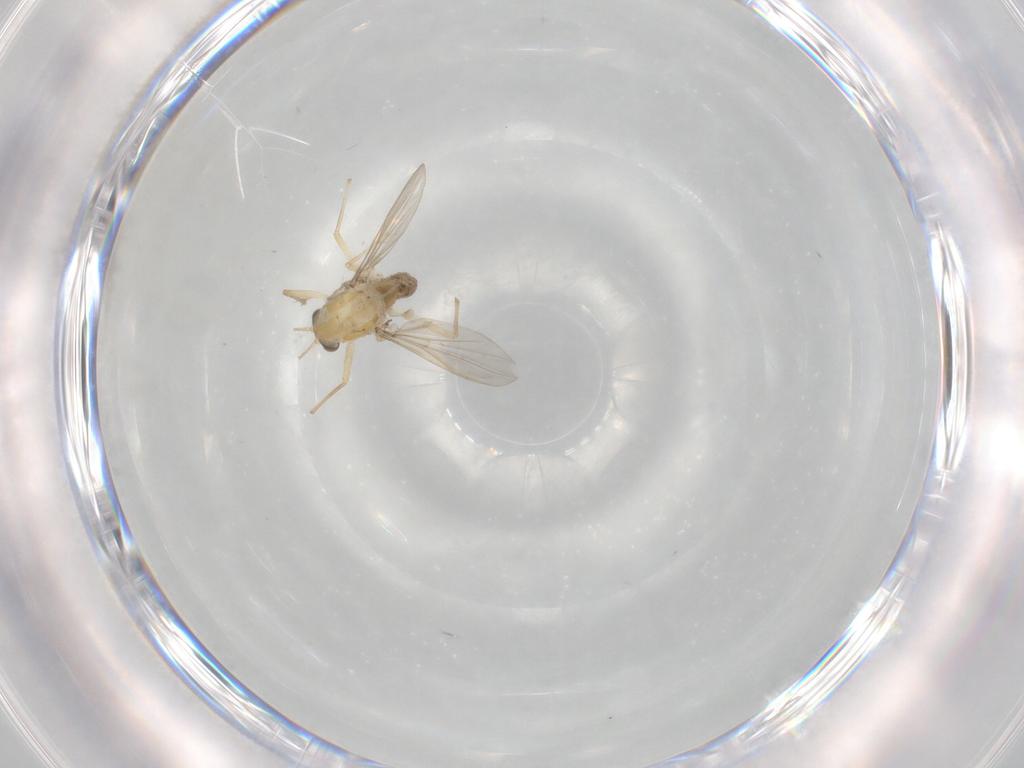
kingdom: Animalia
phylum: Arthropoda
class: Insecta
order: Diptera
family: Chironomidae
